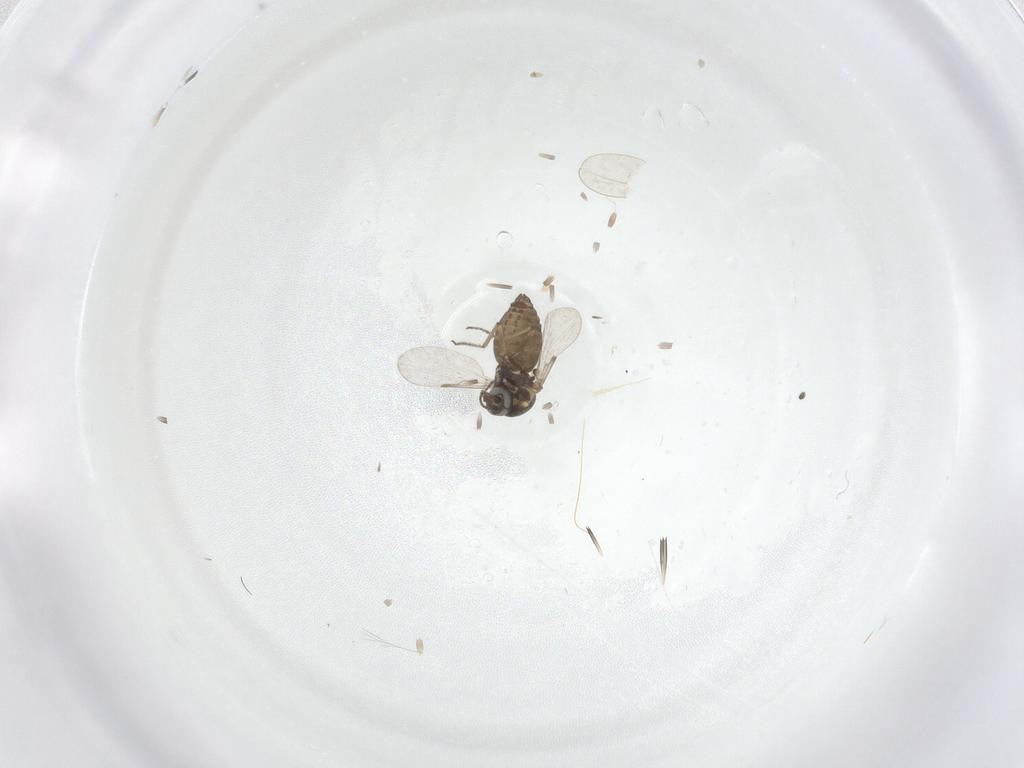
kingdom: Animalia
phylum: Arthropoda
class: Insecta
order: Diptera
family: Ceratopogonidae
